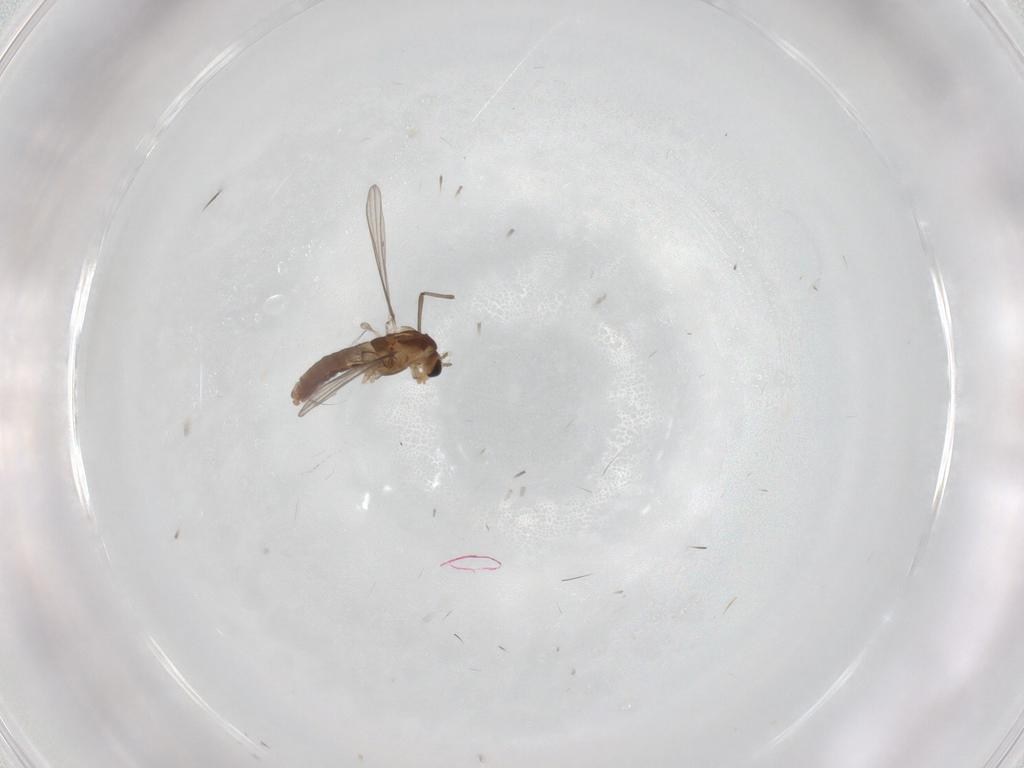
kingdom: Animalia
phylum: Arthropoda
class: Insecta
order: Diptera
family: Chironomidae
